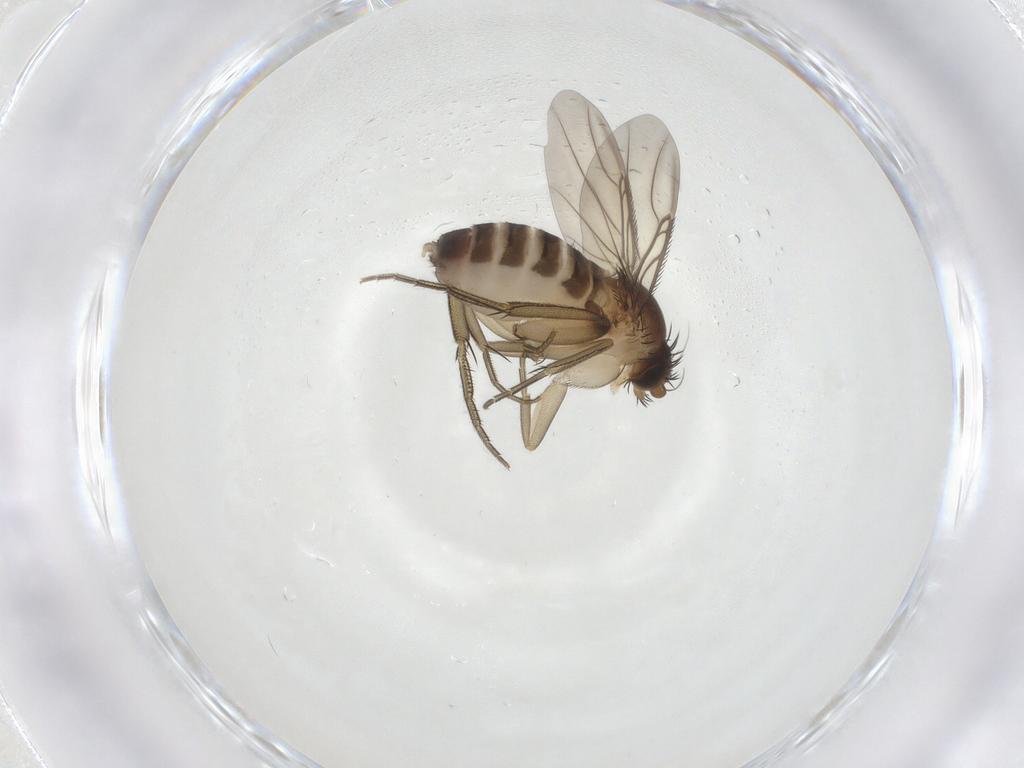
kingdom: Animalia
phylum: Arthropoda
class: Insecta
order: Diptera
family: Phoridae
